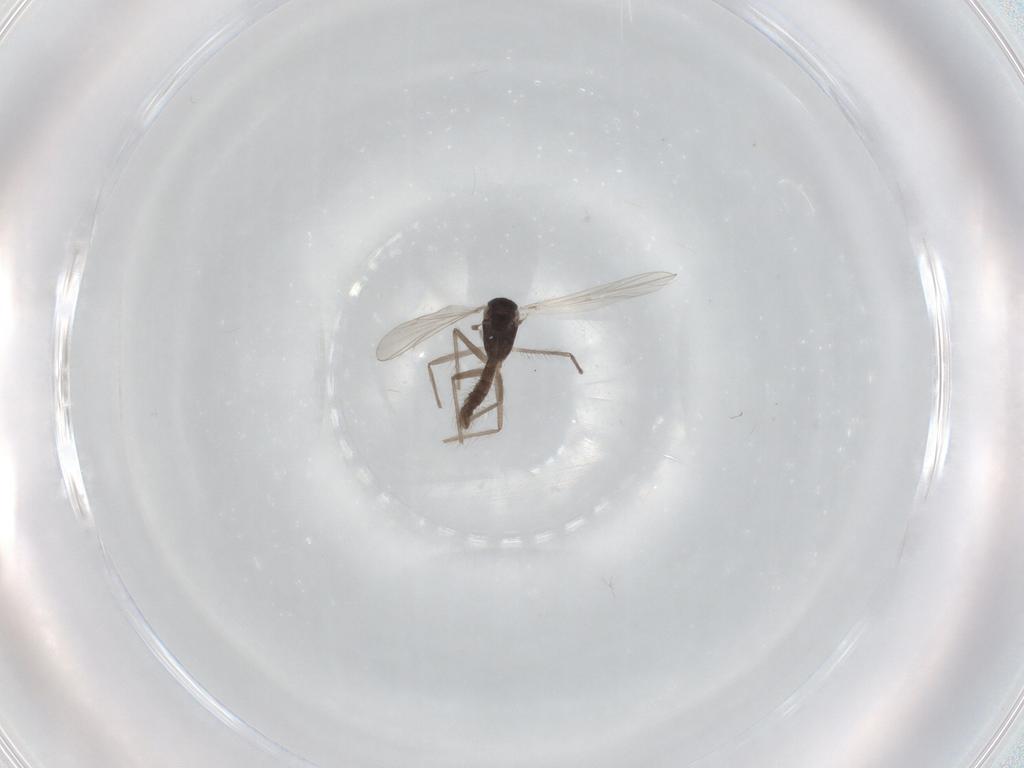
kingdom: Animalia
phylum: Arthropoda
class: Insecta
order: Diptera
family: Chironomidae
